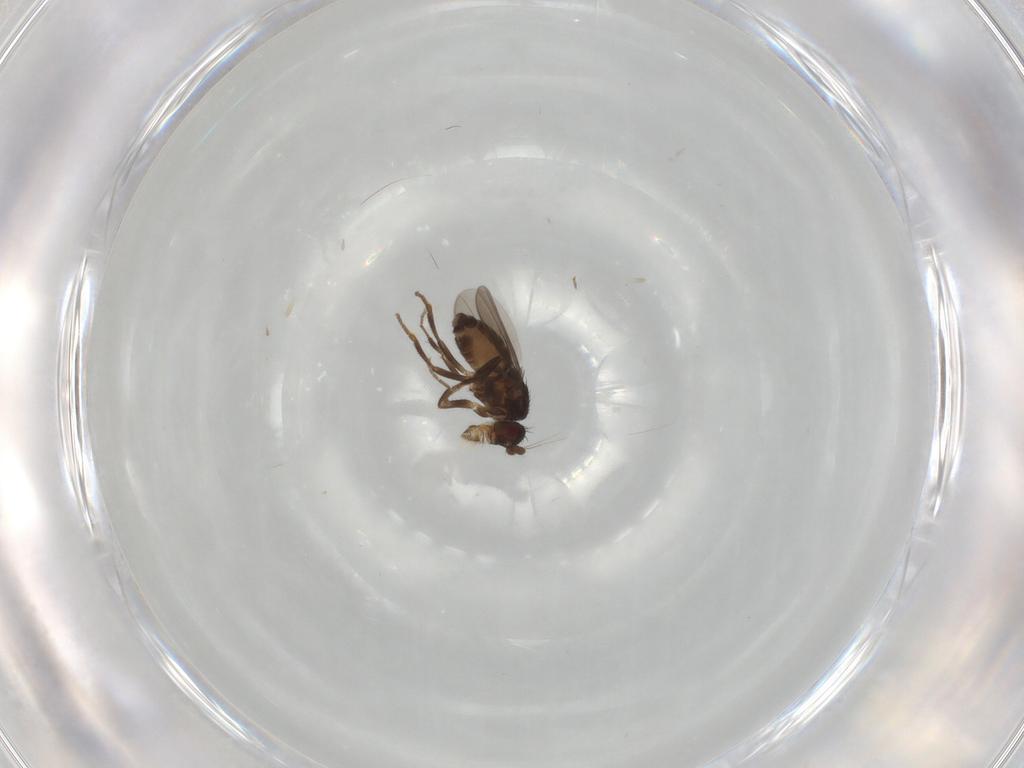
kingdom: Animalia
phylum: Arthropoda
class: Insecta
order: Diptera
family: Sphaeroceridae
